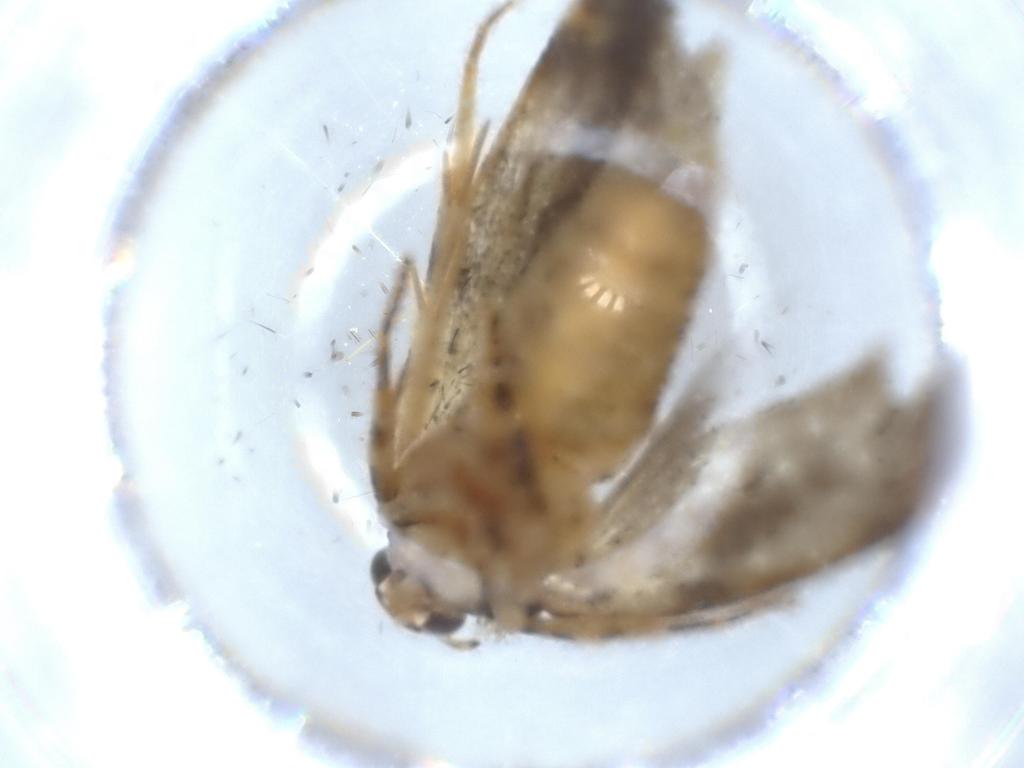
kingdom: Animalia
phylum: Arthropoda
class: Insecta
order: Lepidoptera
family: Gelechiidae
